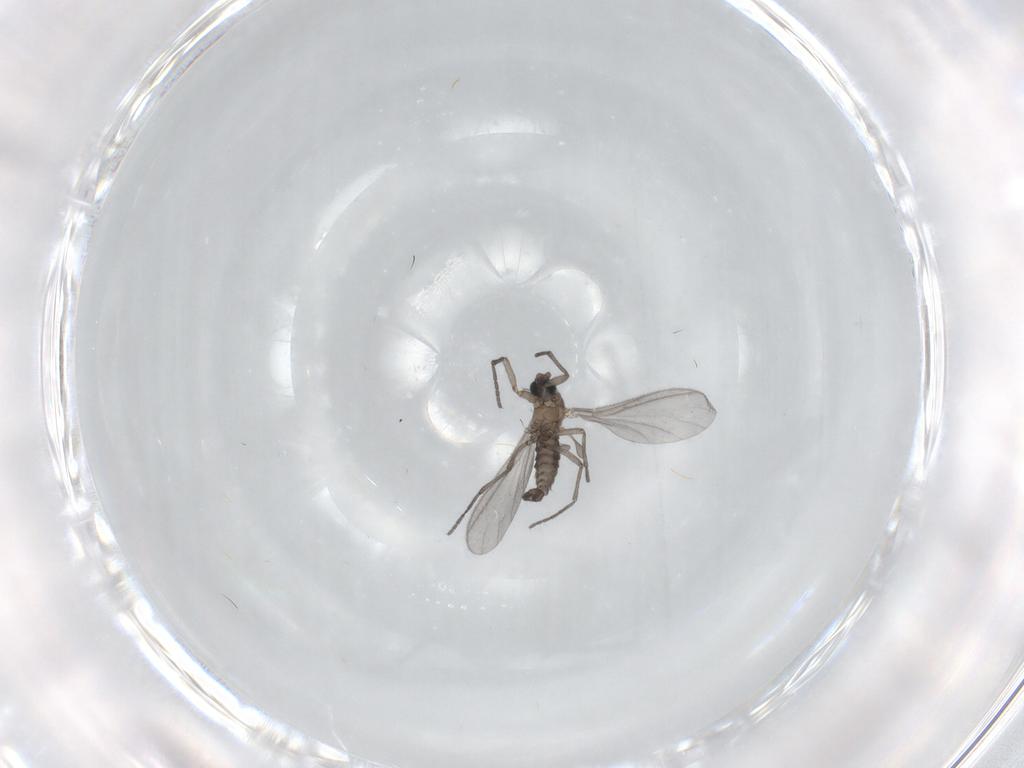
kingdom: Animalia
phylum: Arthropoda
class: Insecta
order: Diptera
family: Sciaridae
